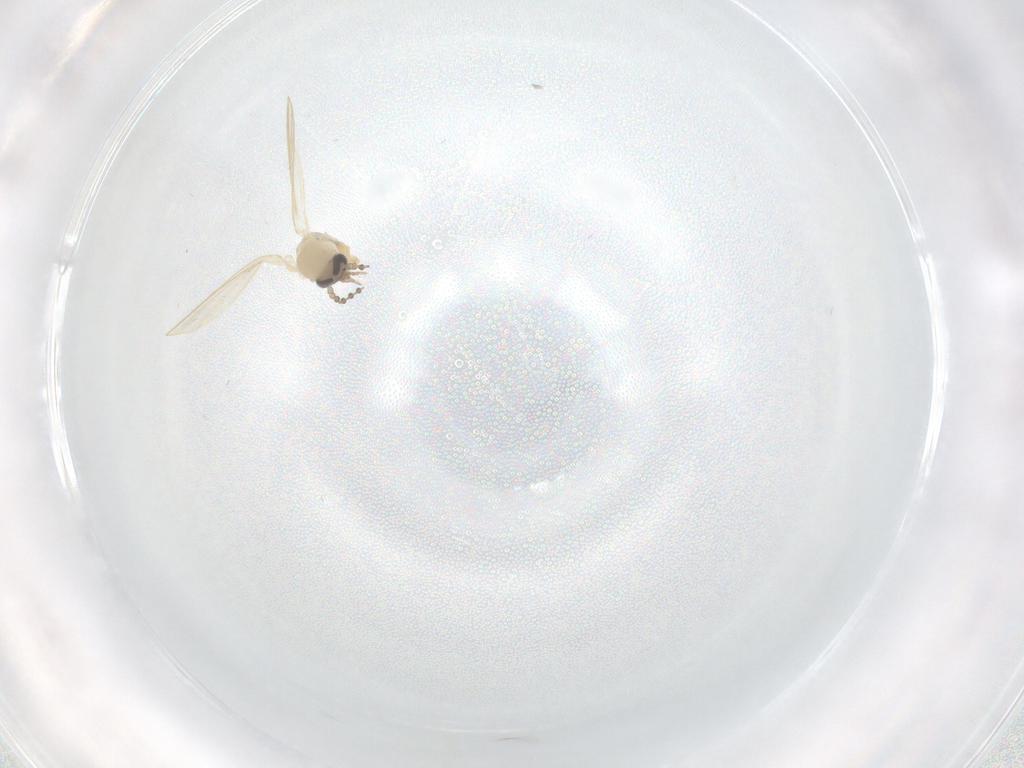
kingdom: Animalia
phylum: Arthropoda
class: Insecta
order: Diptera
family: Psychodidae
